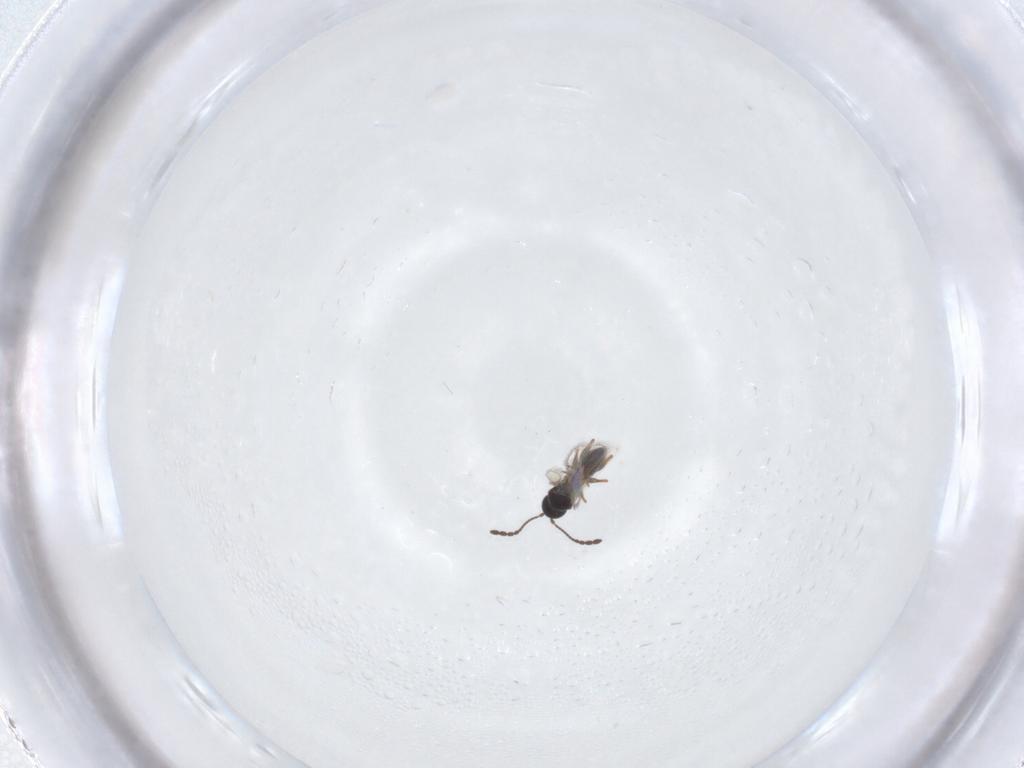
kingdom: Animalia
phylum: Arthropoda
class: Insecta
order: Hymenoptera
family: Figitidae
